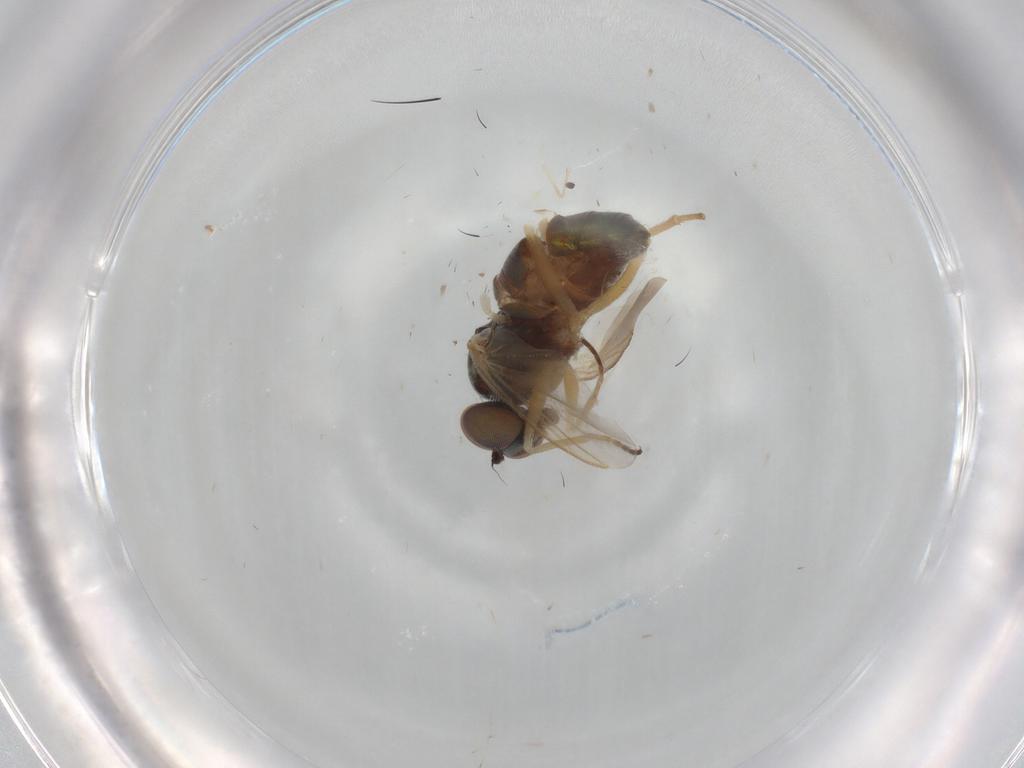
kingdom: Animalia
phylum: Arthropoda
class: Insecta
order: Diptera
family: Dolichopodidae
